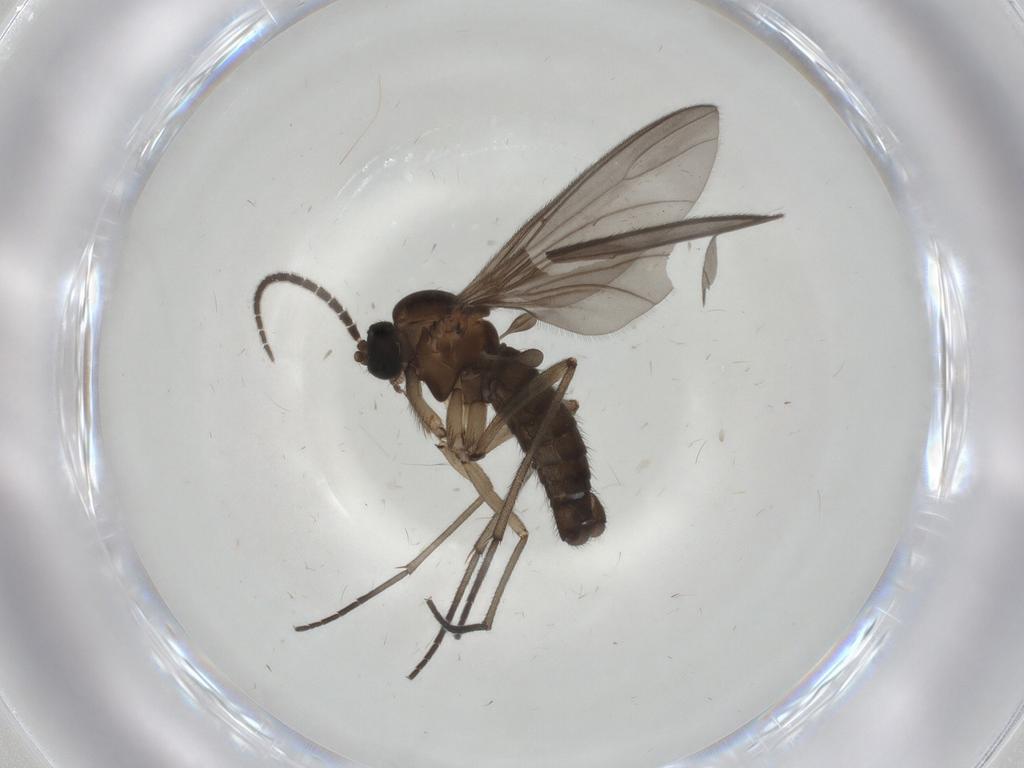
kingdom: Animalia
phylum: Arthropoda
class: Insecta
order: Diptera
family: Sciaridae
